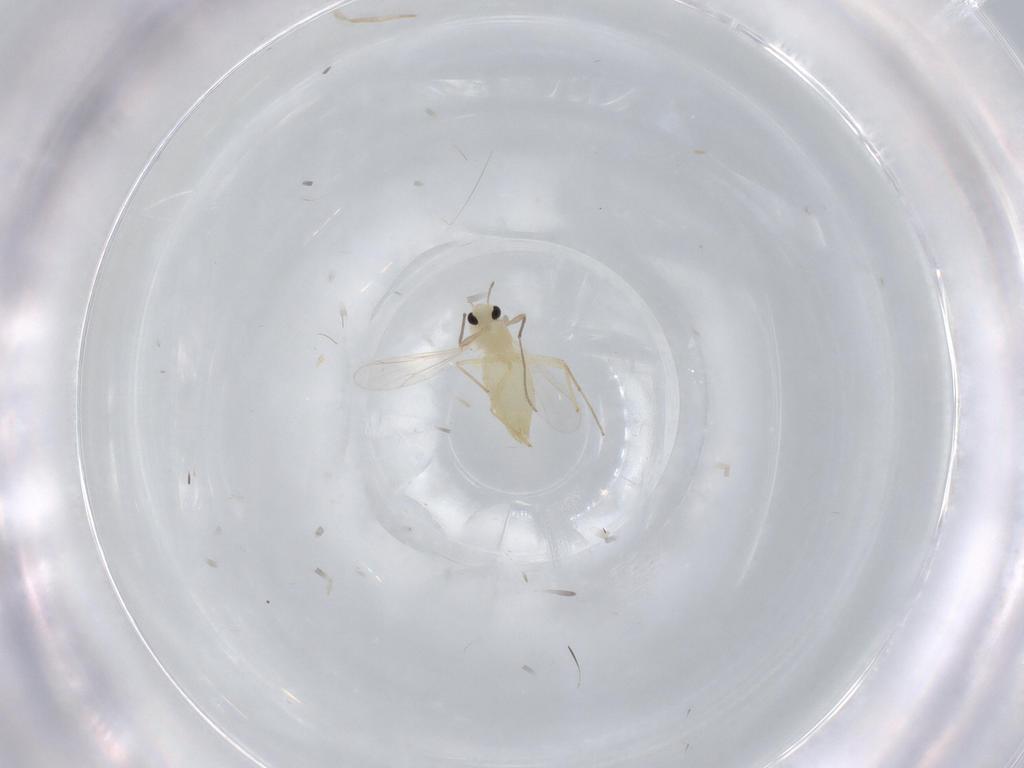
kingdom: Animalia
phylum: Arthropoda
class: Insecta
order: Diptera
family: Chironomidae
